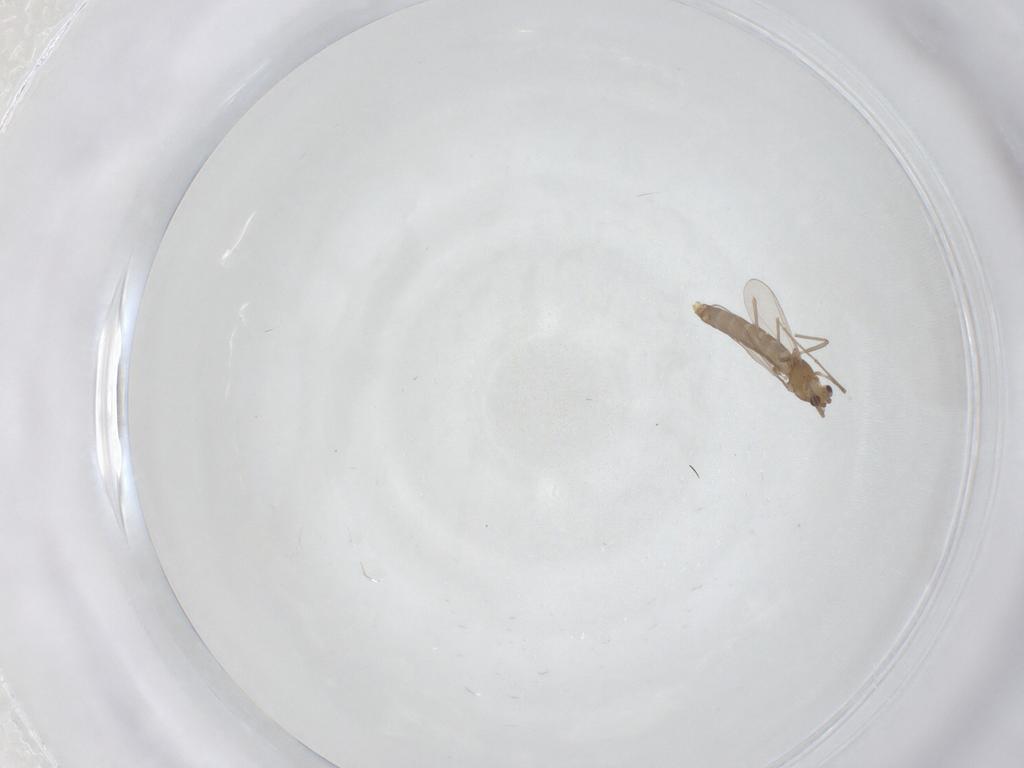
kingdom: Animalia
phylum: Arthropoda
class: Insecta
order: Diptera
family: Chironomidae
